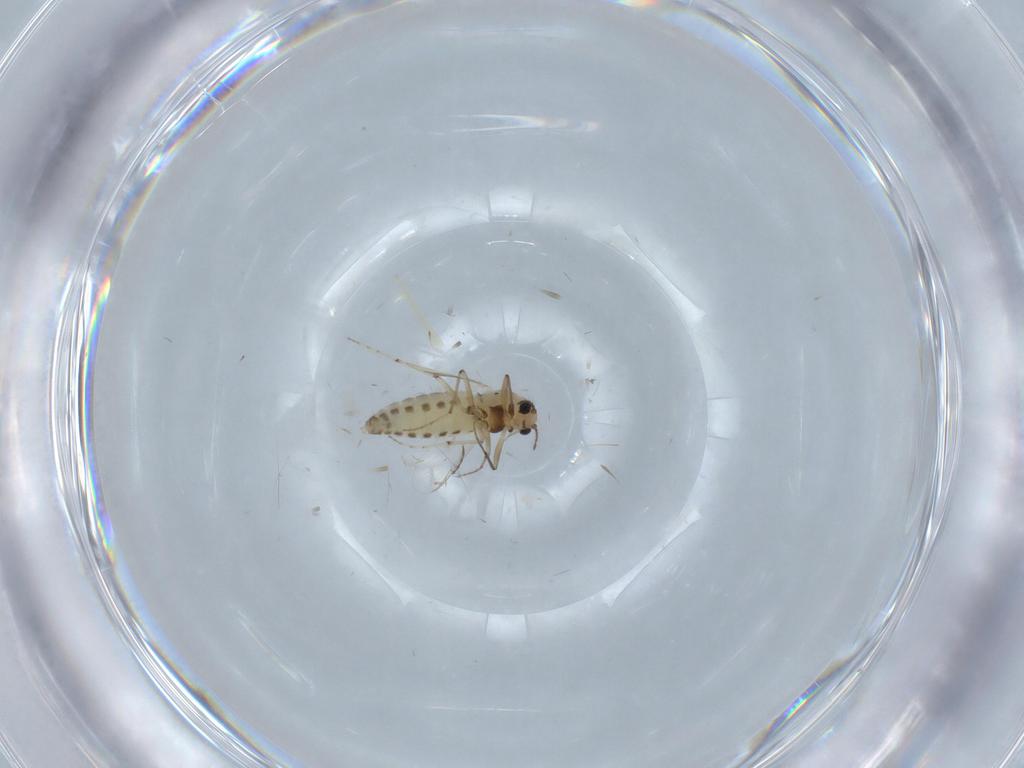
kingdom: Animalia
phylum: Arthropoda
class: Insecta
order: Diptera
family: Chironomidae
